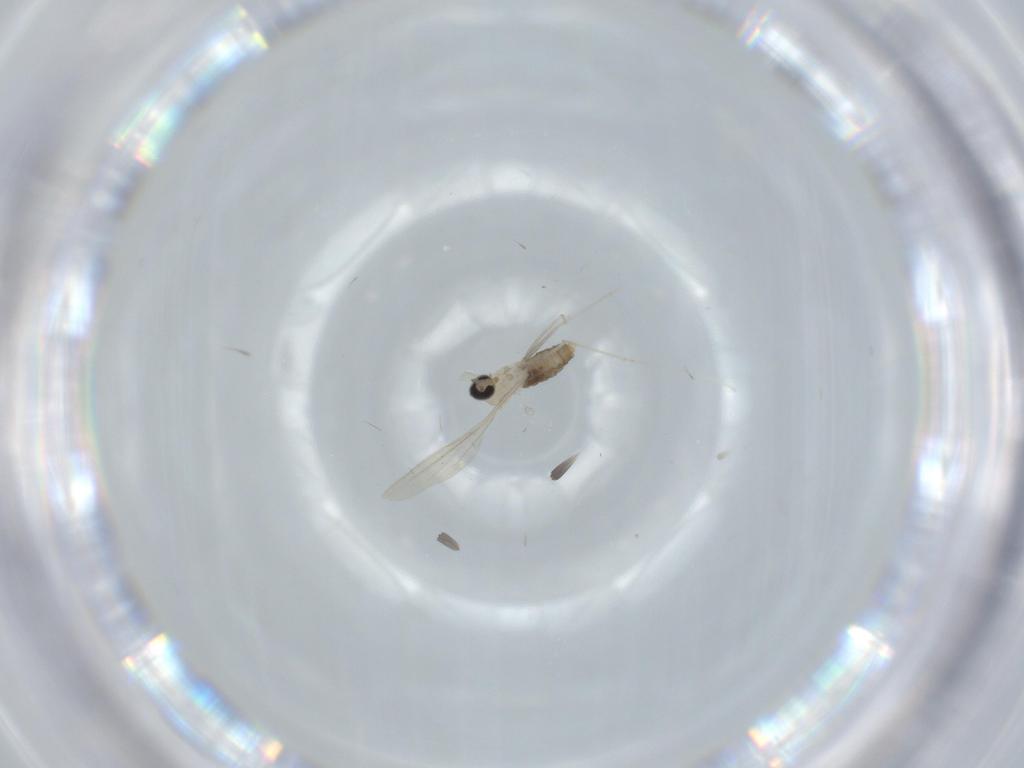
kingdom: Animalia
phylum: Arthropoda
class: Insecta
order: Diptera
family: Cecidomyiidae
